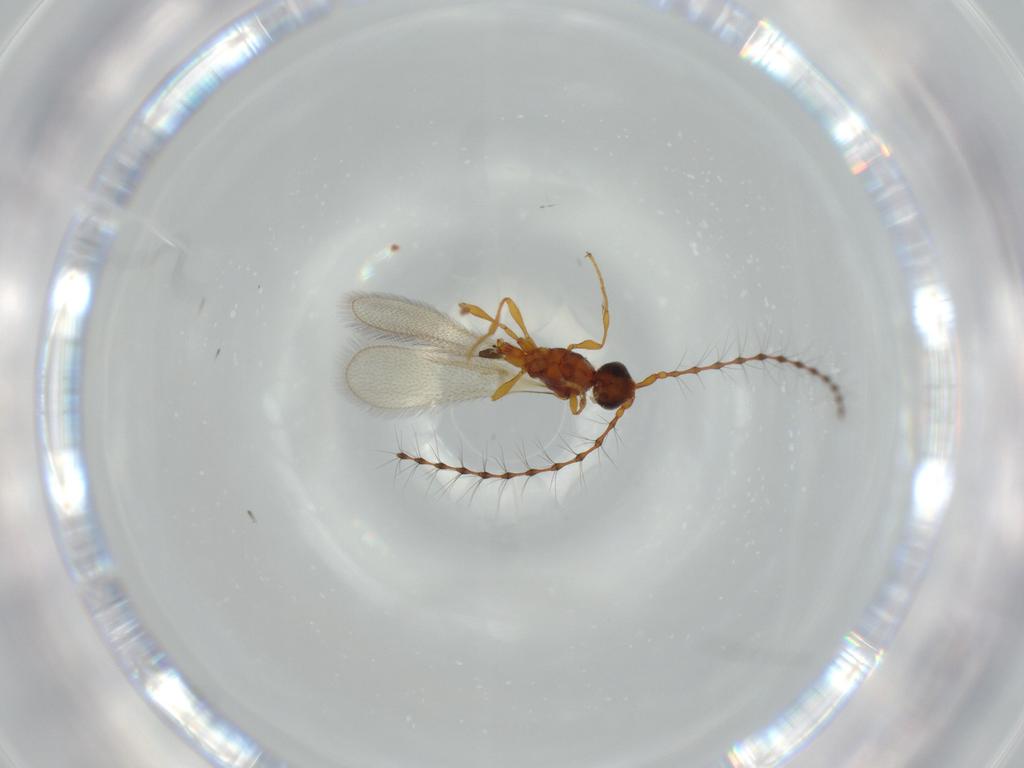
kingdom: Animalia
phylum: Arthropoda
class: Insecta
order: Hymenoptera
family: Diapriidae
